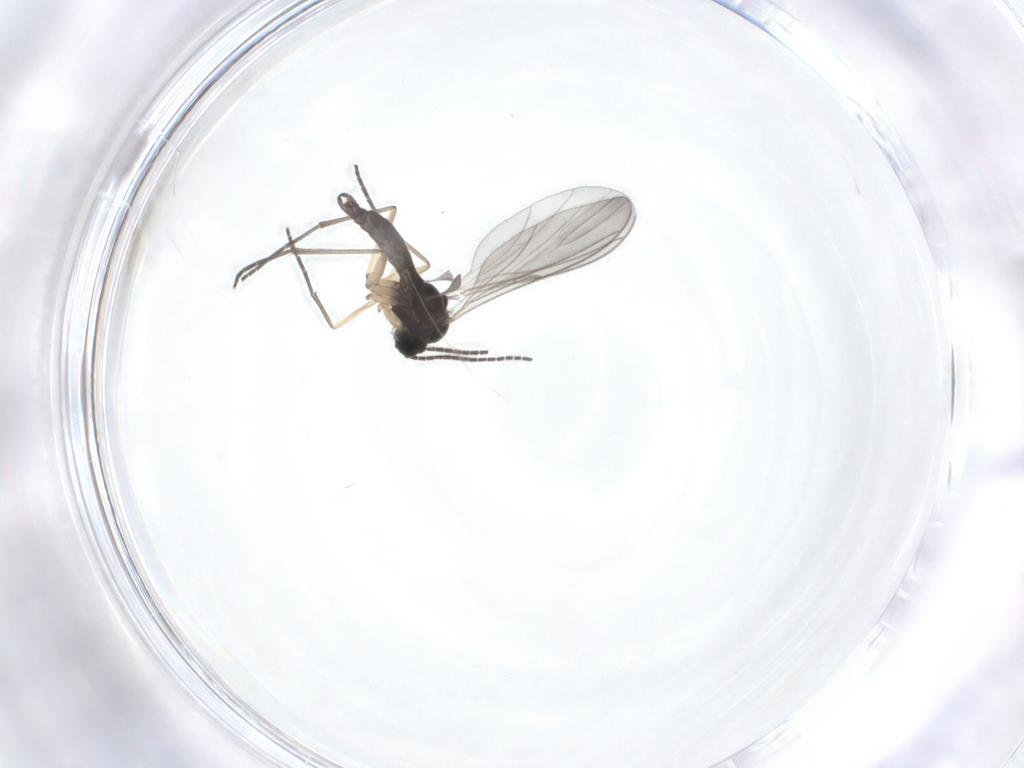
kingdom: Animalia
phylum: Arthropoda
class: Insecta
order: Diptera
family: Sciaridae
